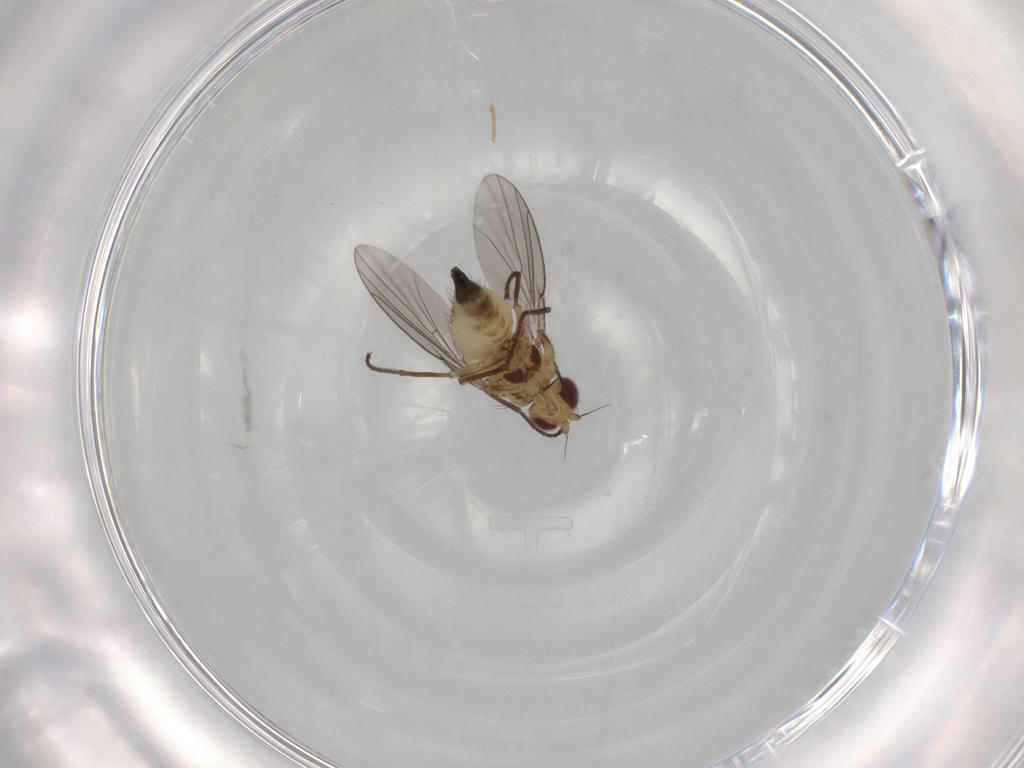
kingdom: Animalia
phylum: Arthropoda
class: Insecta
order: Diptera
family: Agromyzidae
